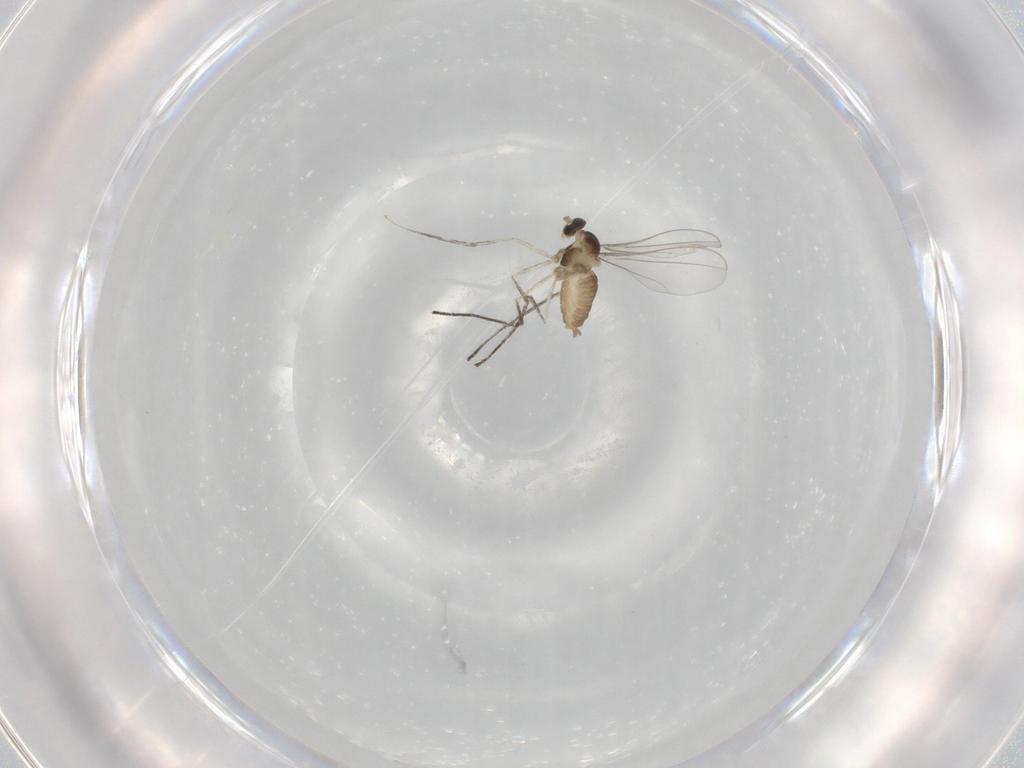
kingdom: Animalia
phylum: Arthropoda
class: Insecta
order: Diptera
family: Cecidomyiidae
